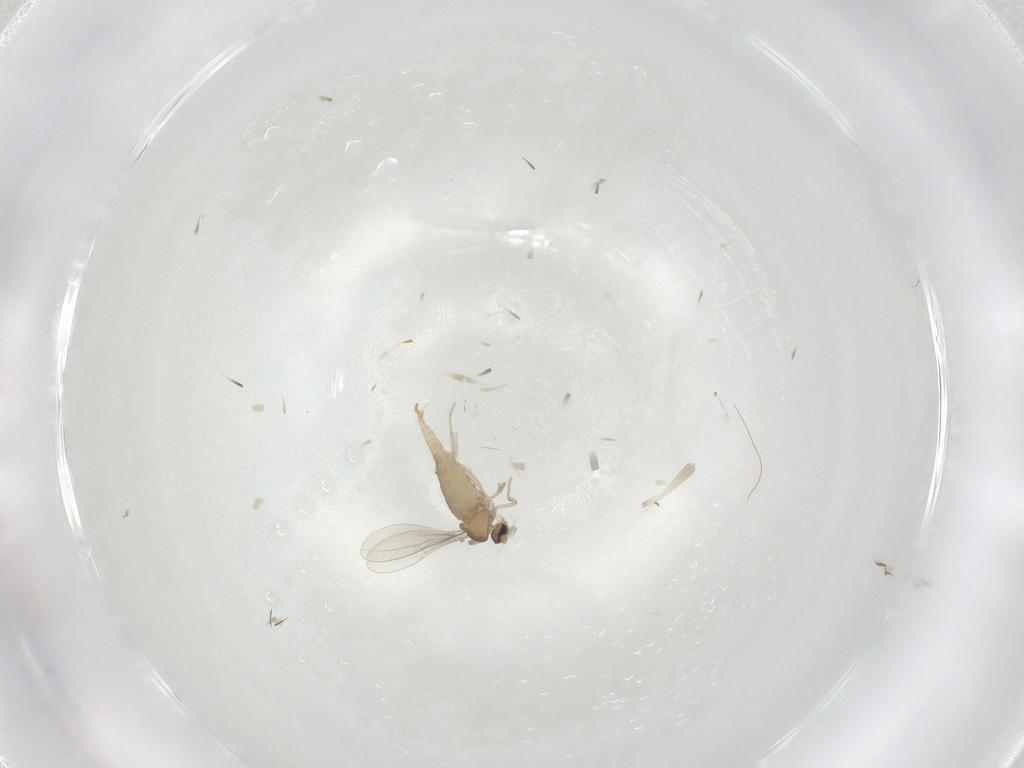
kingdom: Animalia
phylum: Arthropoda
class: Insecta
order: Diptera
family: Cecidomyiidae
